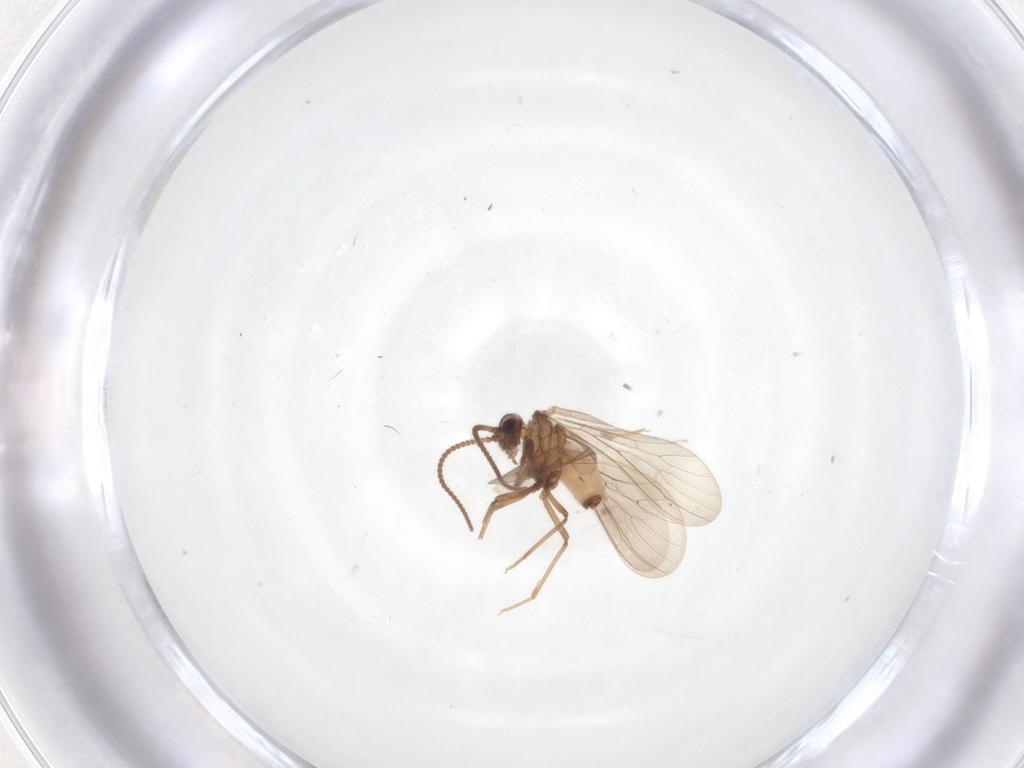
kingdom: Animalia
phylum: Arthropoda
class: Insecta
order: Neuroptera
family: Coniopterygidae
